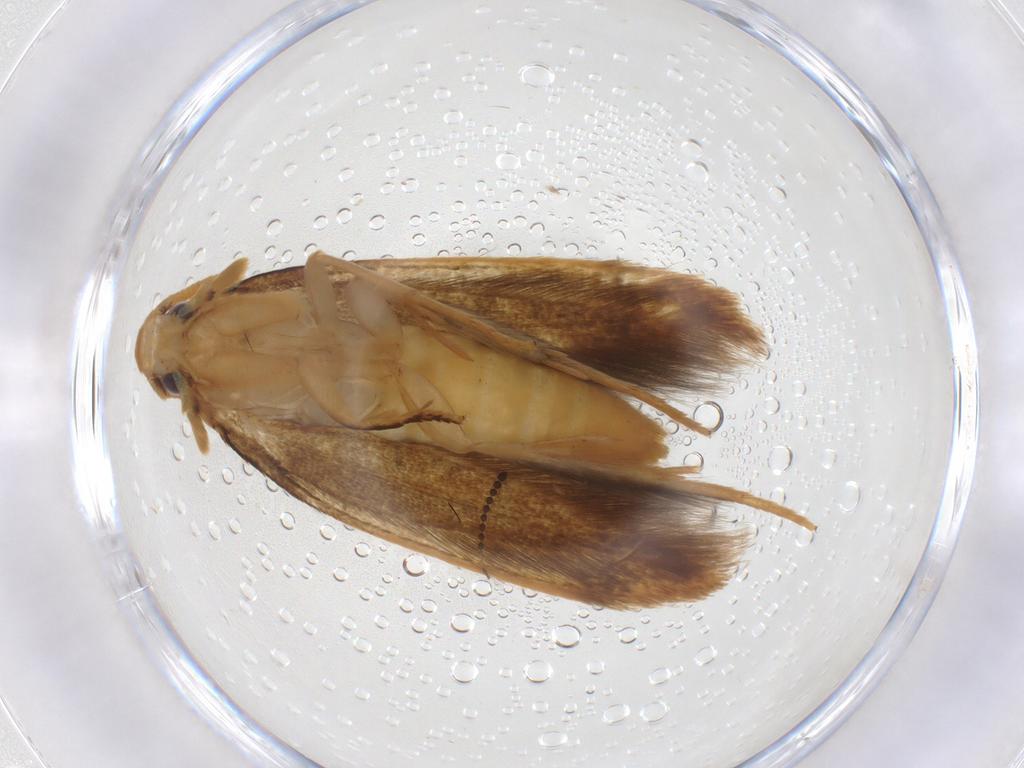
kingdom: Animalia
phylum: Arthropoda
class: Insecta
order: Lepidoptera
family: Tineidae
